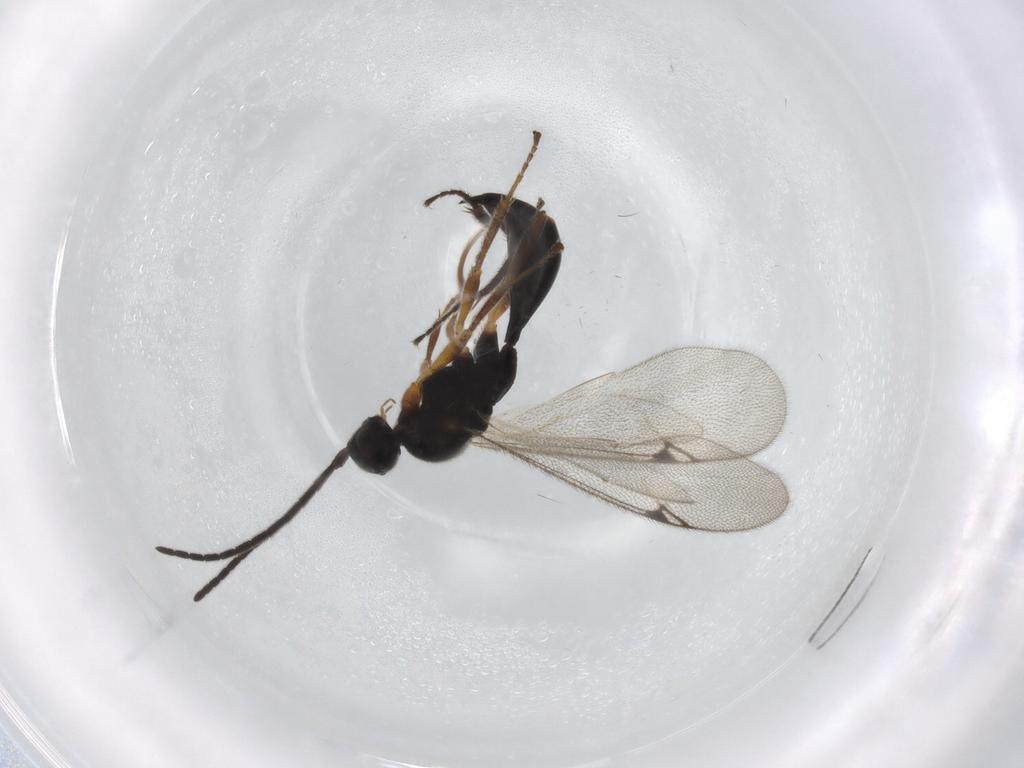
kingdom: Animalia
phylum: Arthropoda
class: Insecta
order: Hymenoptera
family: Proctotrupidae
